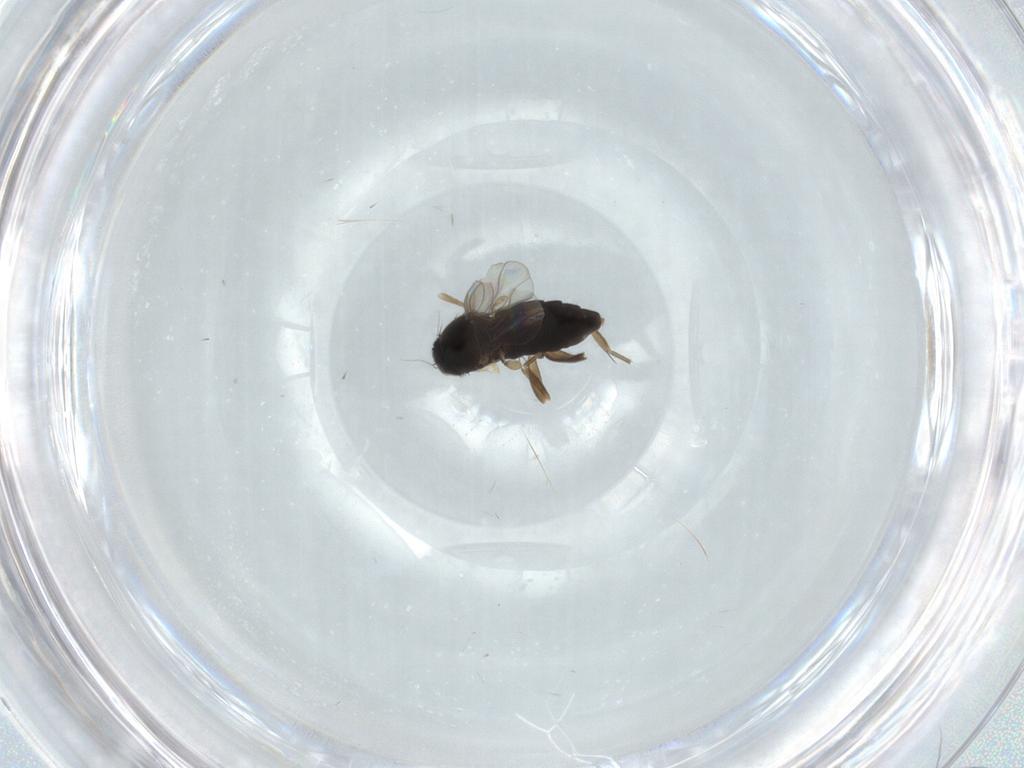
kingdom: Animalia
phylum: Arthropoda
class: Insecta
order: Diptera
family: Phoridae
